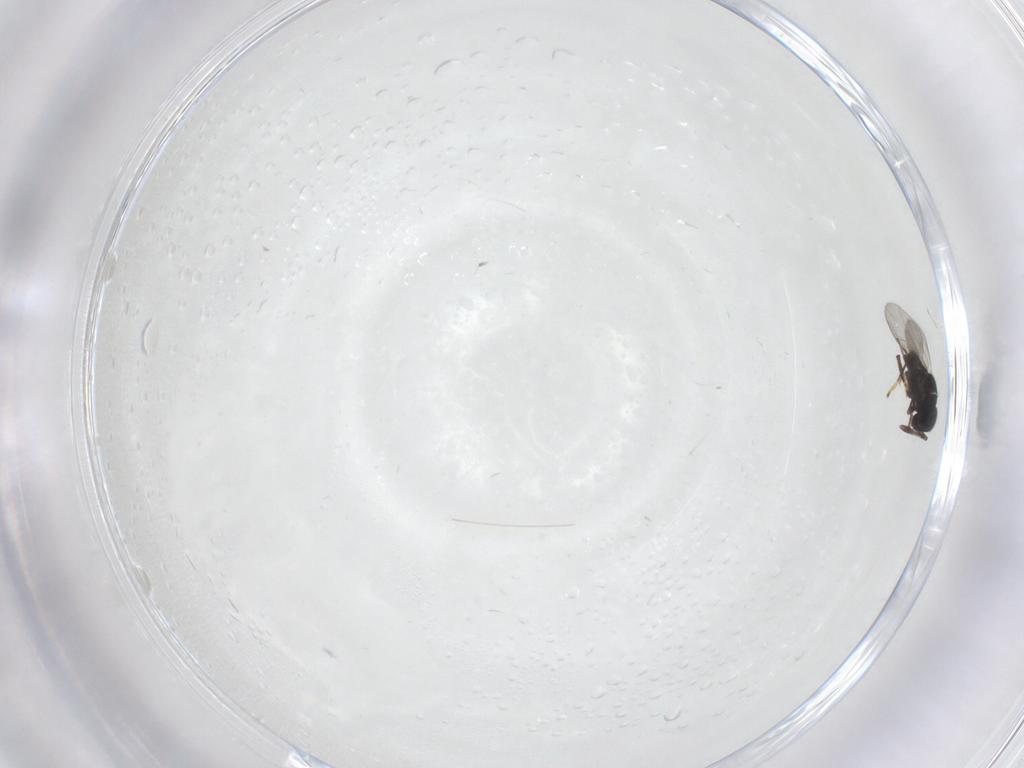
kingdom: Animalia
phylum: Arthropoda
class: Insecta
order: Hymenoptera
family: Encyrtidae
